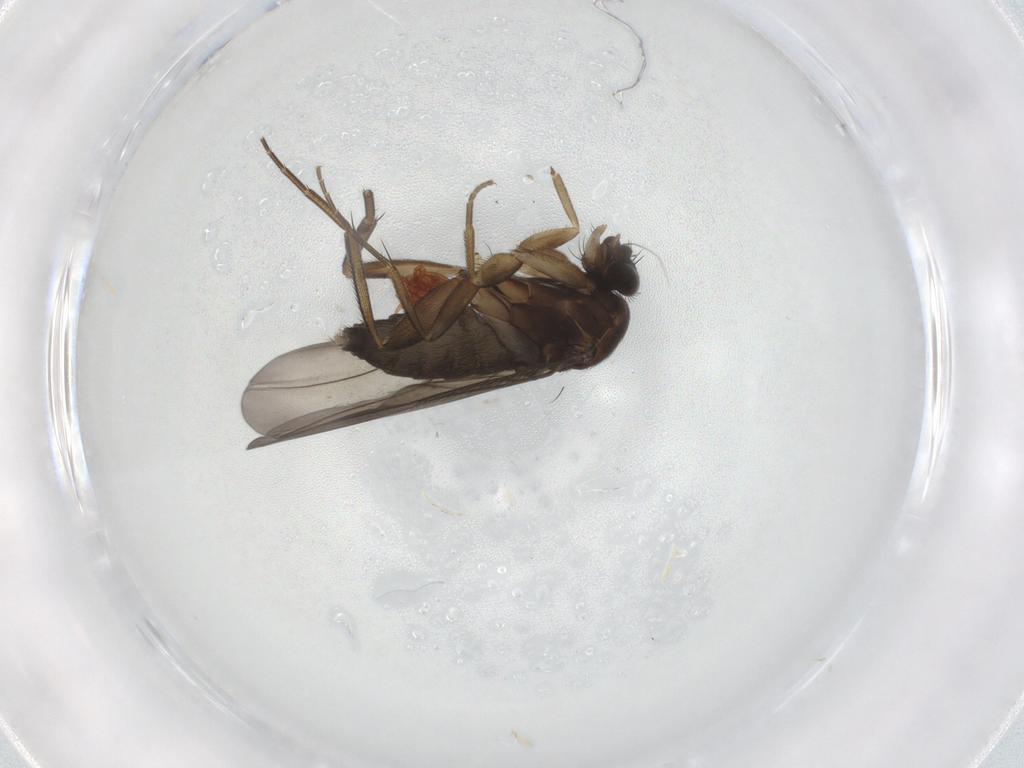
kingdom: Animalia
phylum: Arthropoda
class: Insecta
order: Diptera
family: Phoridae
